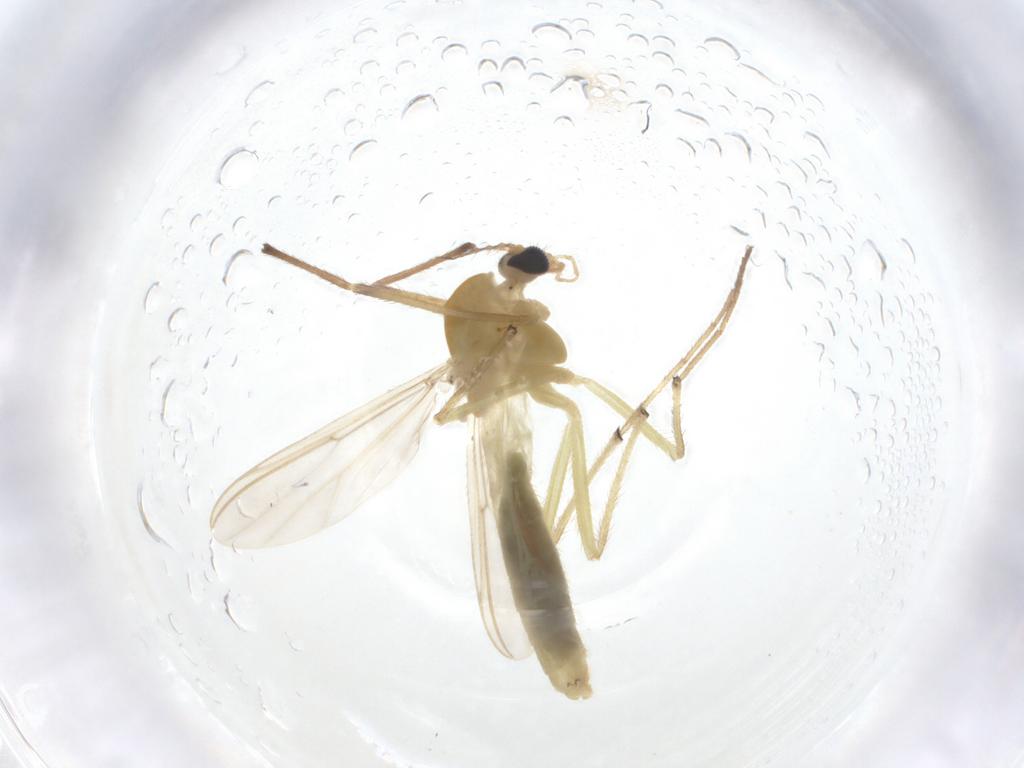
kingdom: Animalia
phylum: Arthropoda
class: Insecta
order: Diptera
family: Chironomidae
